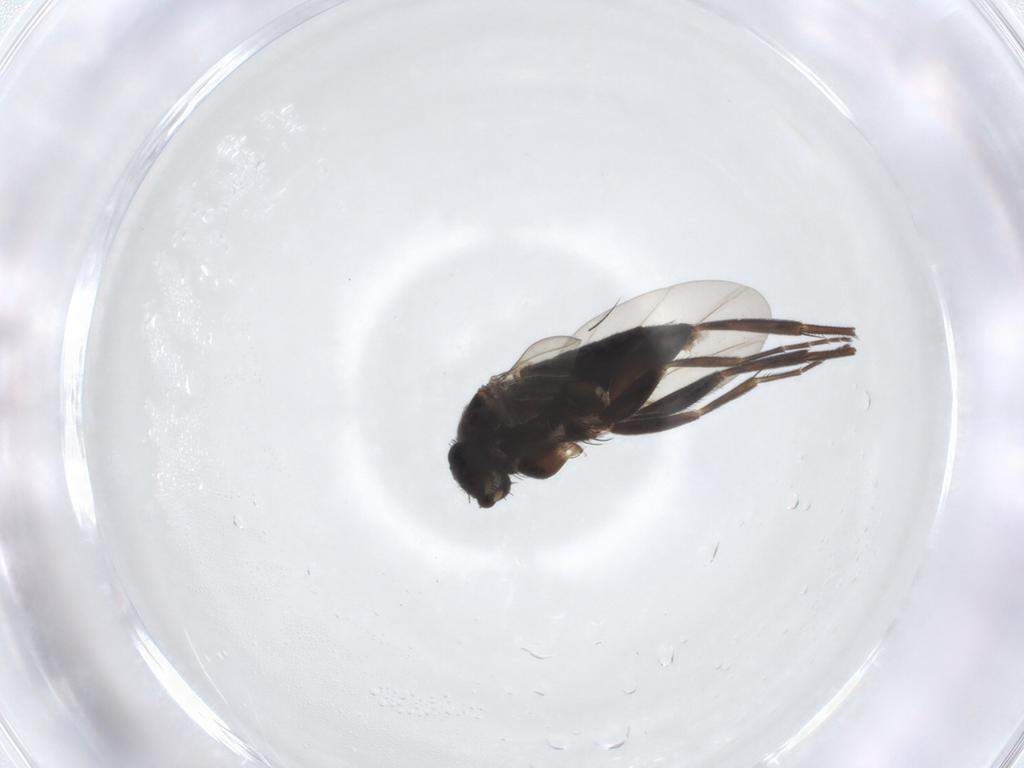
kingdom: Animalia
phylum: Arthropoda
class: Insecta
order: Diptera
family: Phoridae
